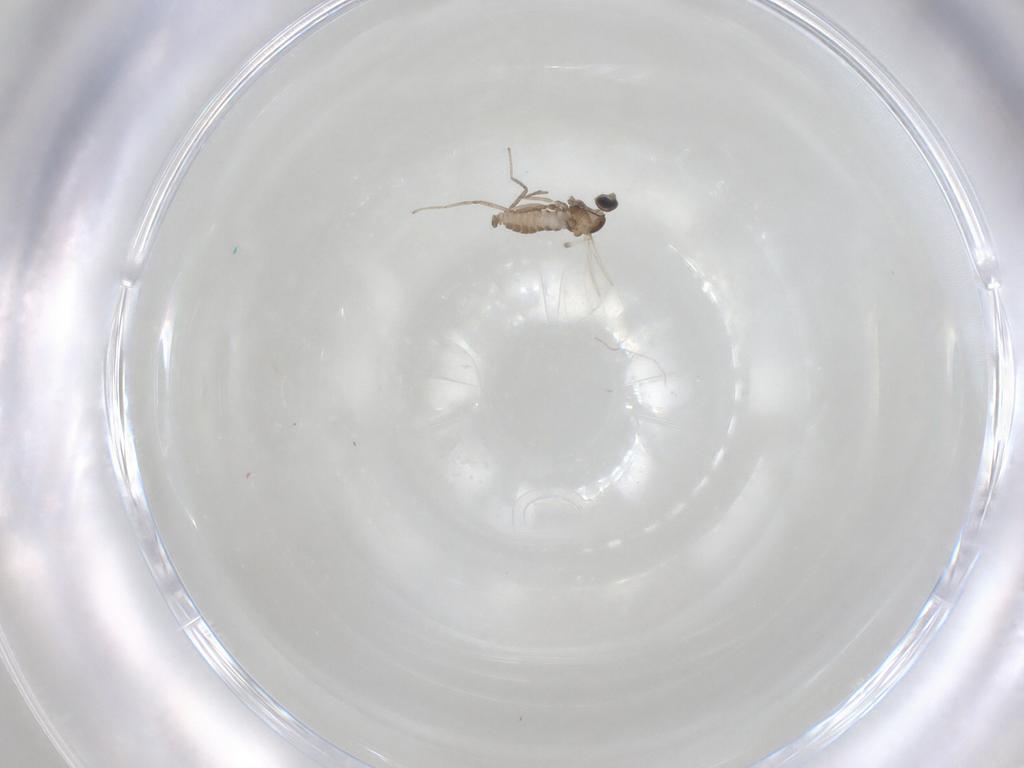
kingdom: Animalia
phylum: Arthropoda
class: Insecta
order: Diptera
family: Cecidomyiidae
